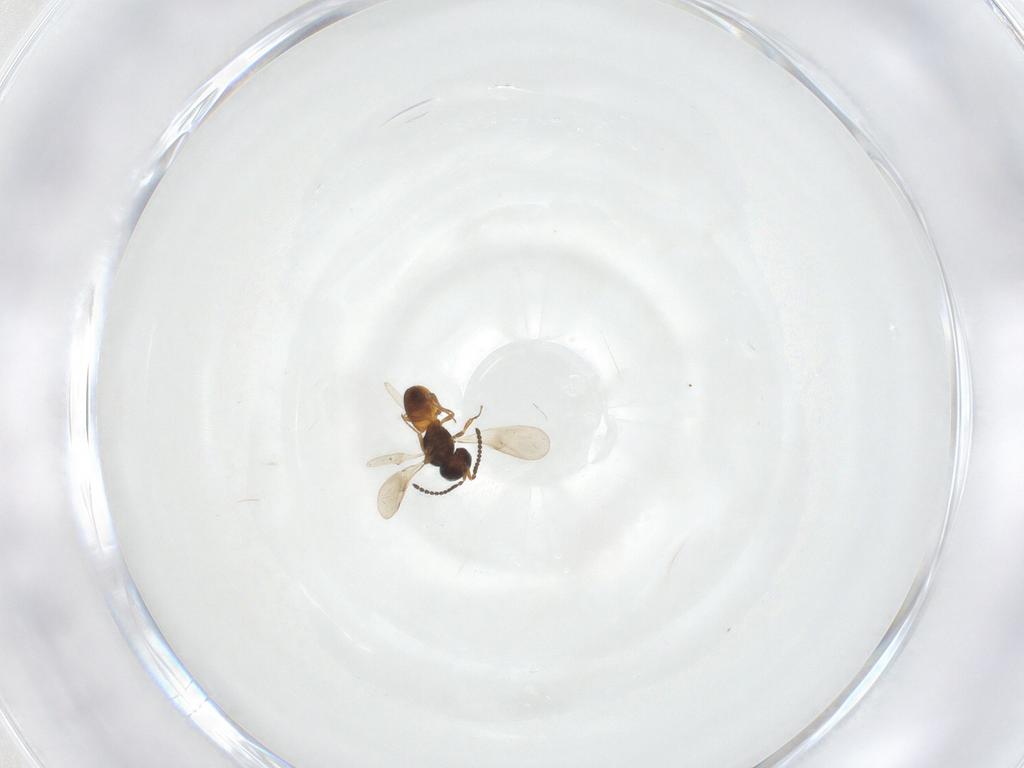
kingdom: Animalia
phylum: Arthropoda
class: Insecta
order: Hymenoptera
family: Scelionidae
